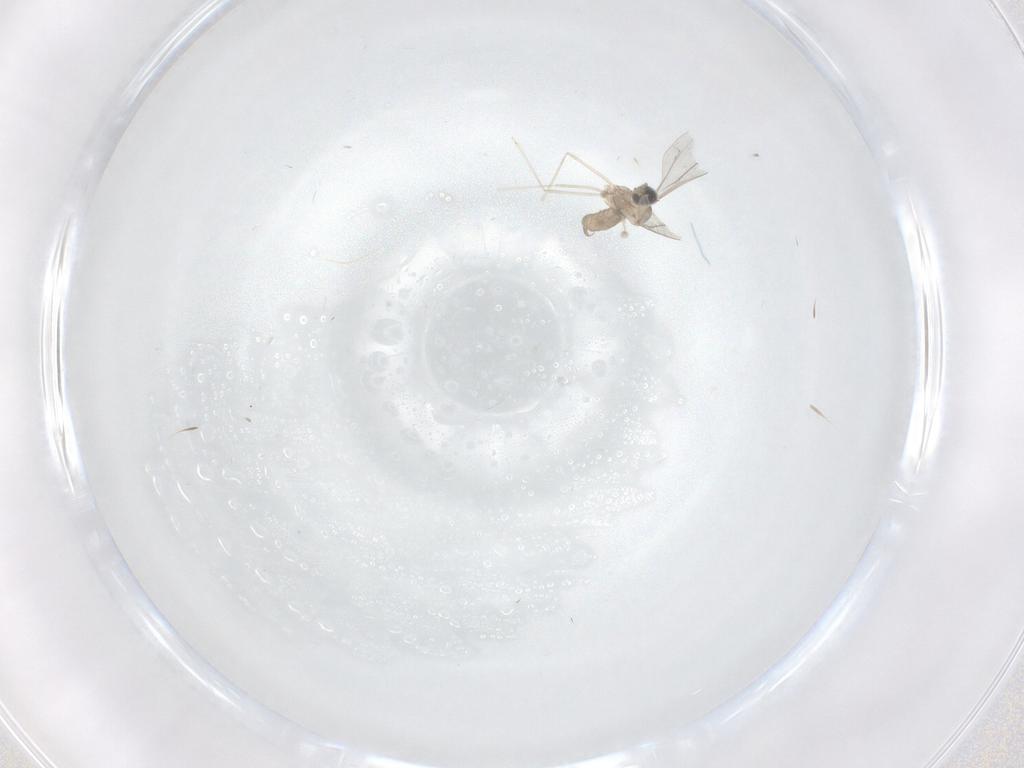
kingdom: Animalia
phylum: Arthropoda
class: Insecta
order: Diptera
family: Cecidomyiidae
